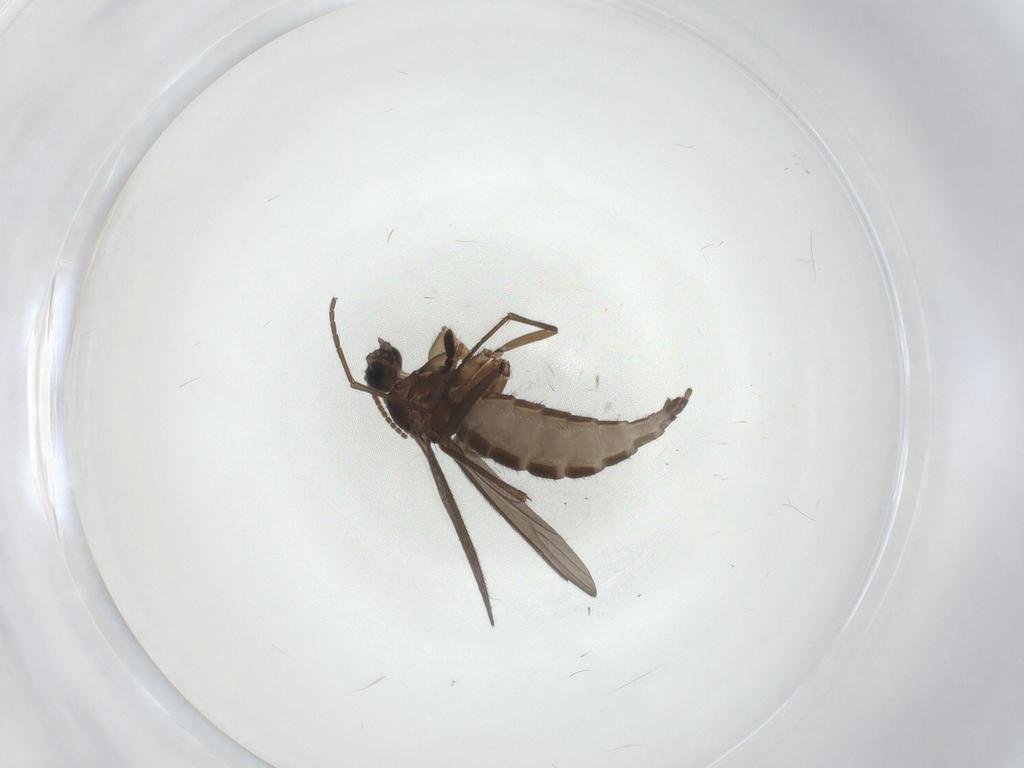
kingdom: Animalia
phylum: Arthropoda
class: Insecta
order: Diptera
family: Sciaridae
